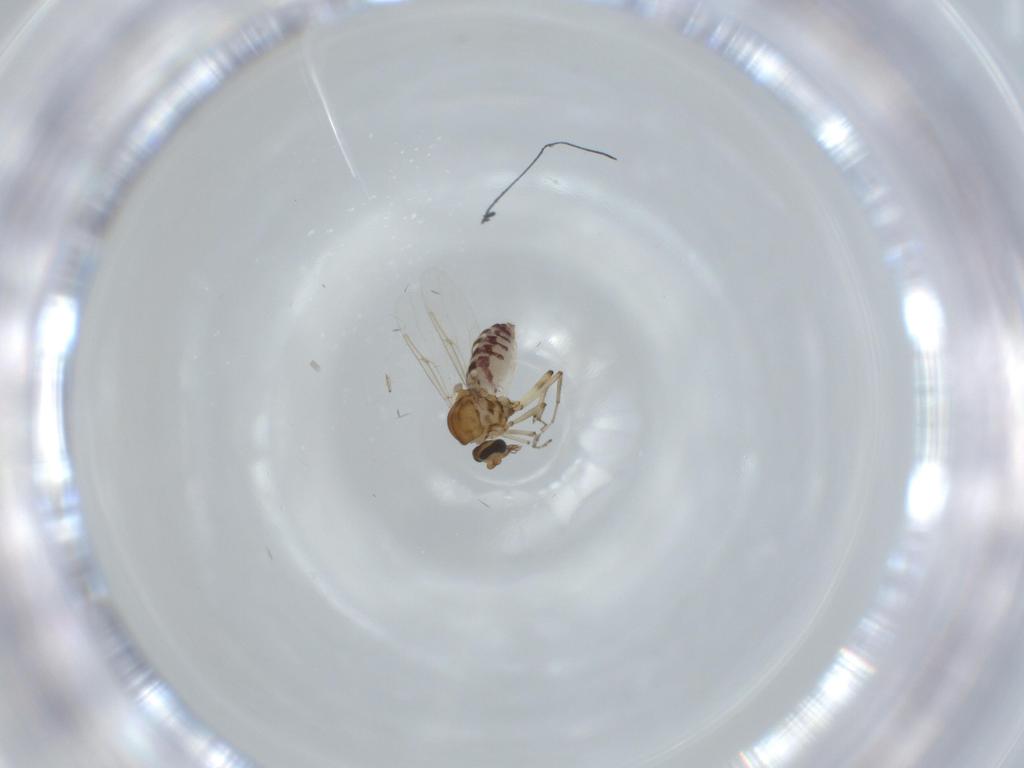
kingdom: Animalia
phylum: Arthropoda
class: Insecta
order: Diptera
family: Ceratopogonidae
